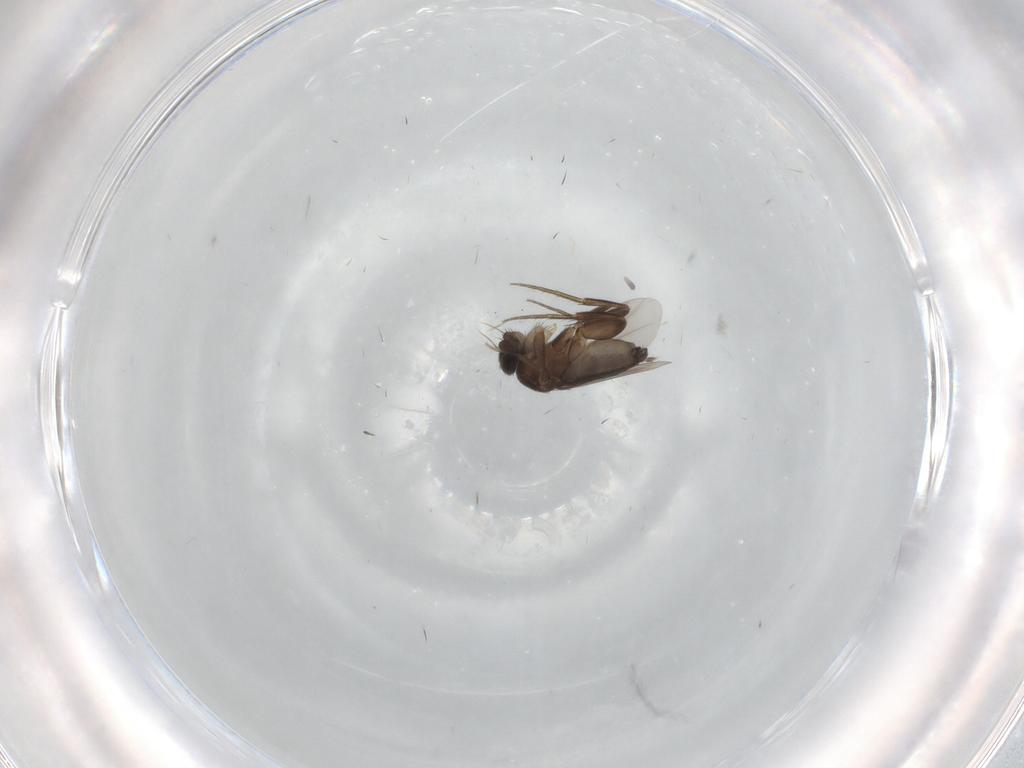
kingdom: Animalia
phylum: Arthropoda
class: Insecta
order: Diptera
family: Phoridae
